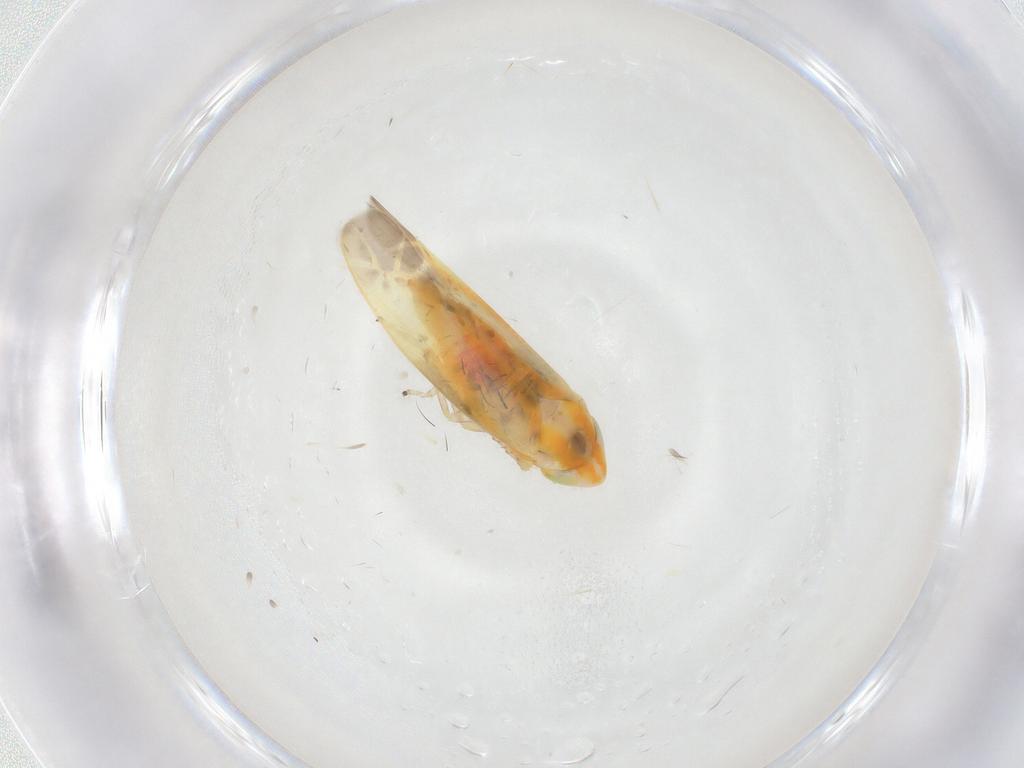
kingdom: Animalia
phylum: Arthropoda
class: Insecta
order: Hemiptera
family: Cicadellidae
